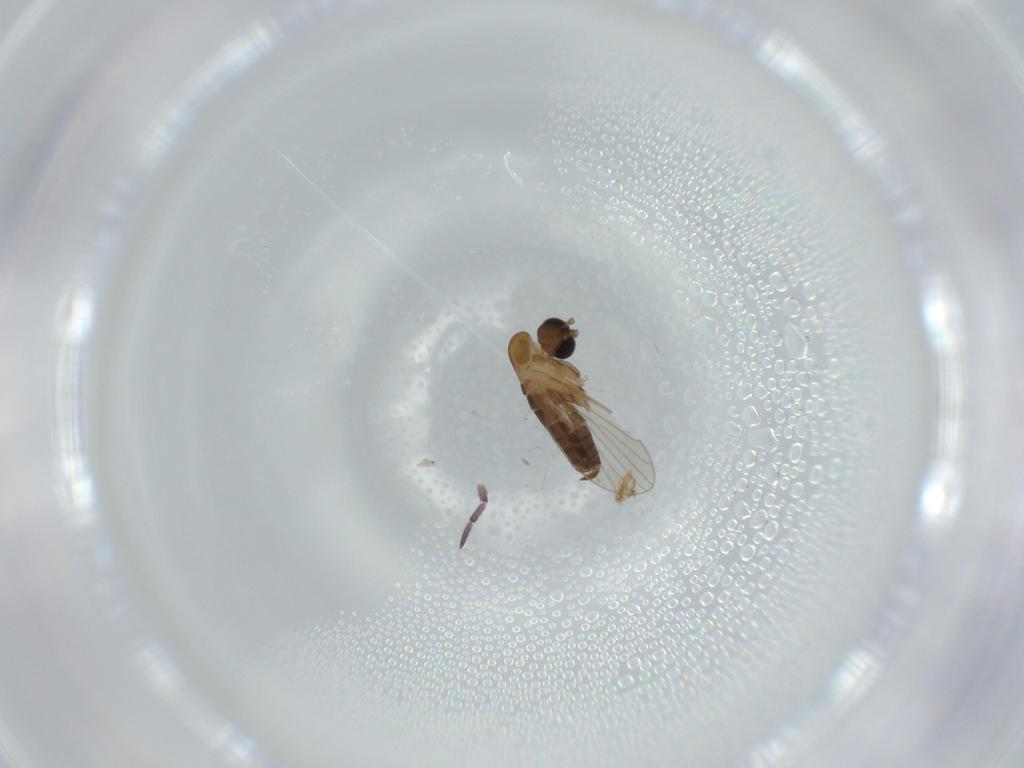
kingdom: Animalia
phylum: Arthropoda
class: Insecta
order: Diptera
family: Psychodidae
